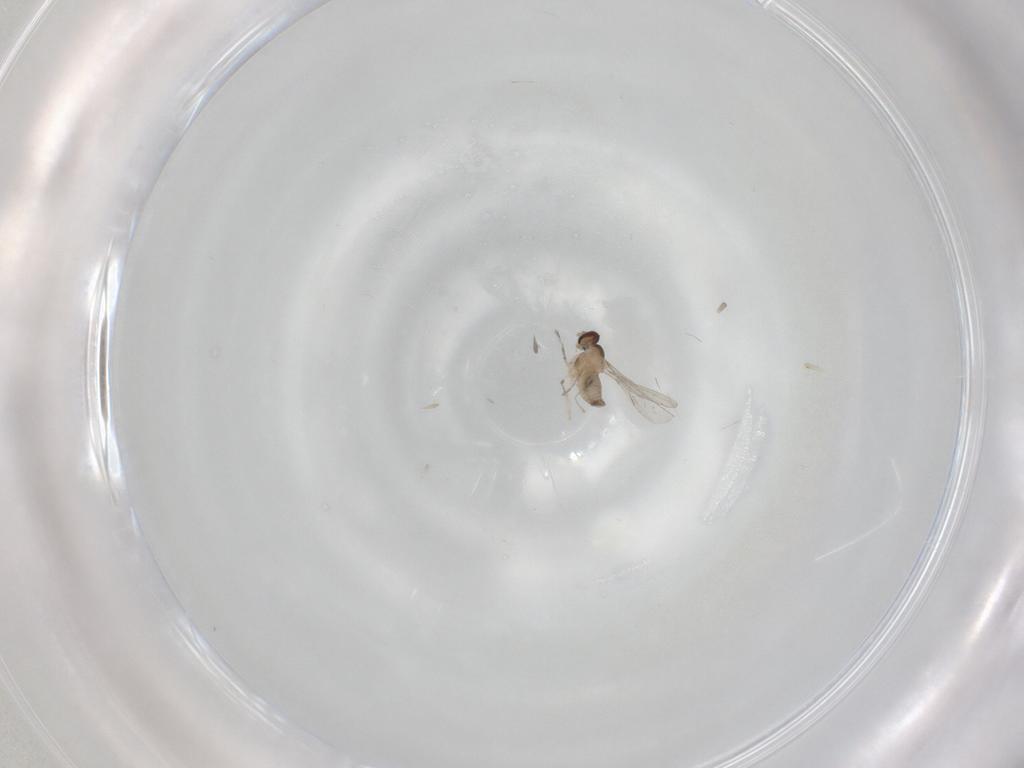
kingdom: Animalia
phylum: Arthropoda
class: Insecta
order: Diptera
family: Cecidomyiidae
